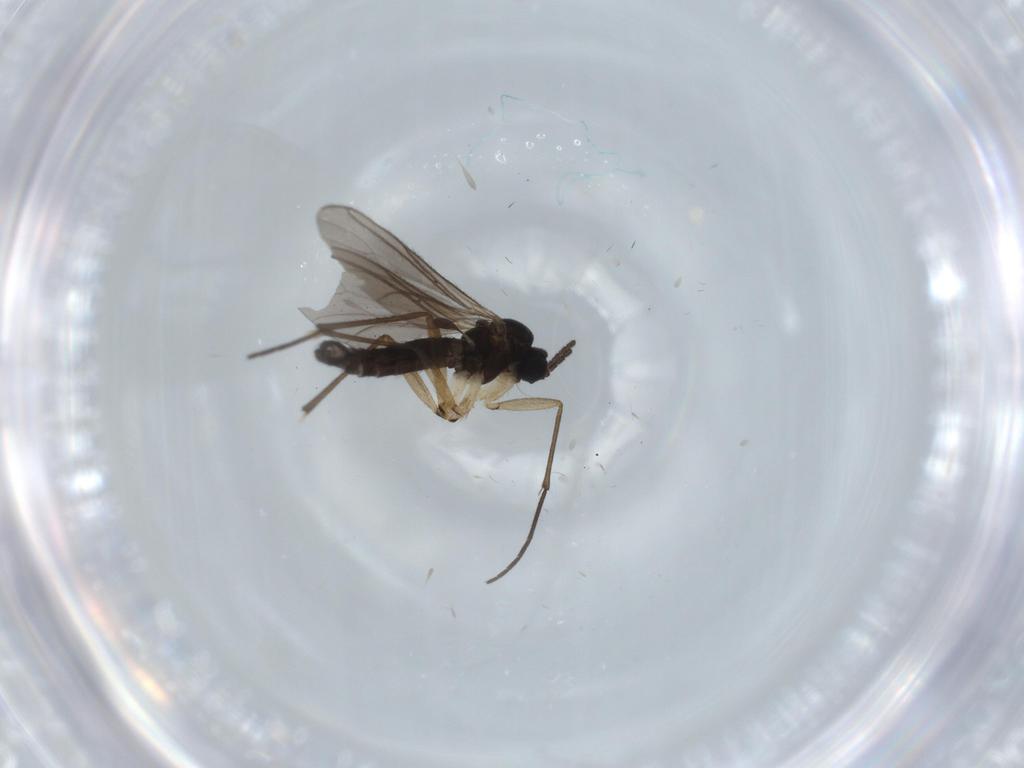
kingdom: Animalia
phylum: Arthropoda
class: Insecta
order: Diptera
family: Sciaridae
